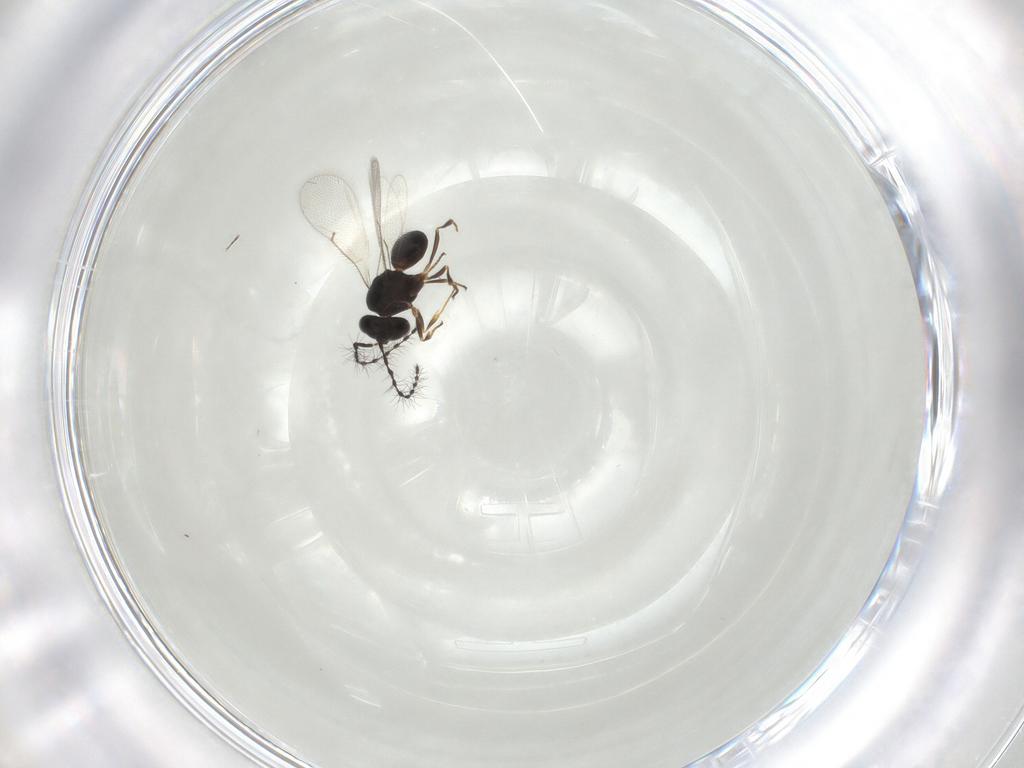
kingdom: Animalia
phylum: Arthropoda
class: Insecta
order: Hymenoptera
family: Scelionidae
